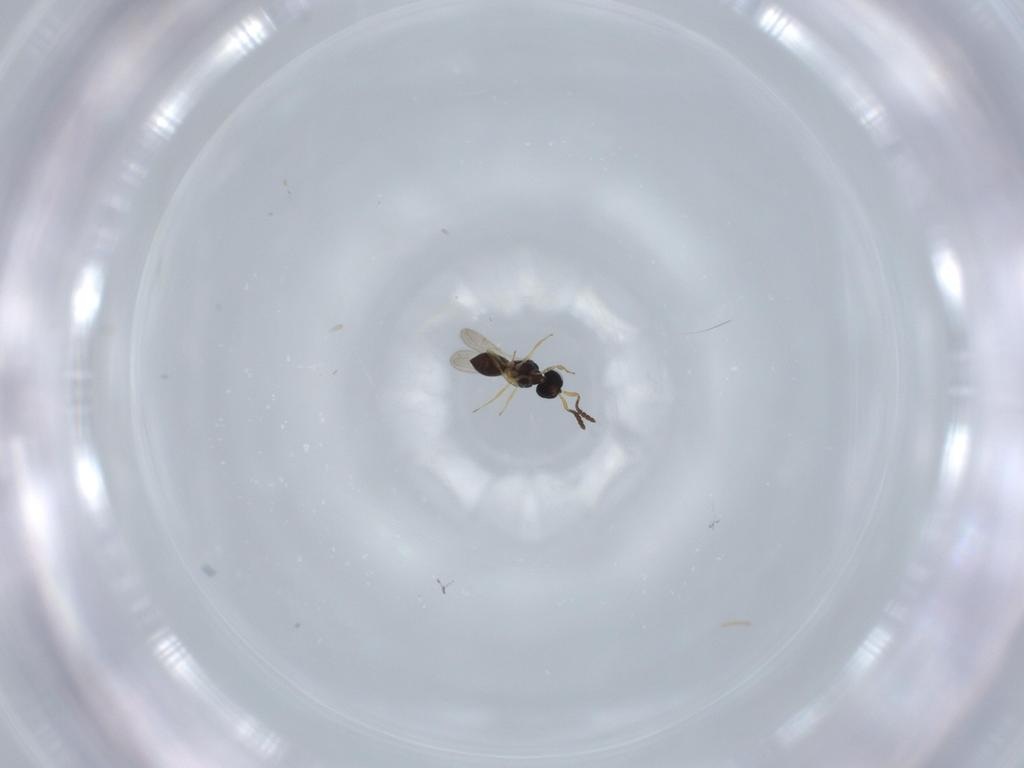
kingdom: Animalia
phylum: Arthropoda
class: Insecta
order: Hymenoptera
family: Scelionidae
